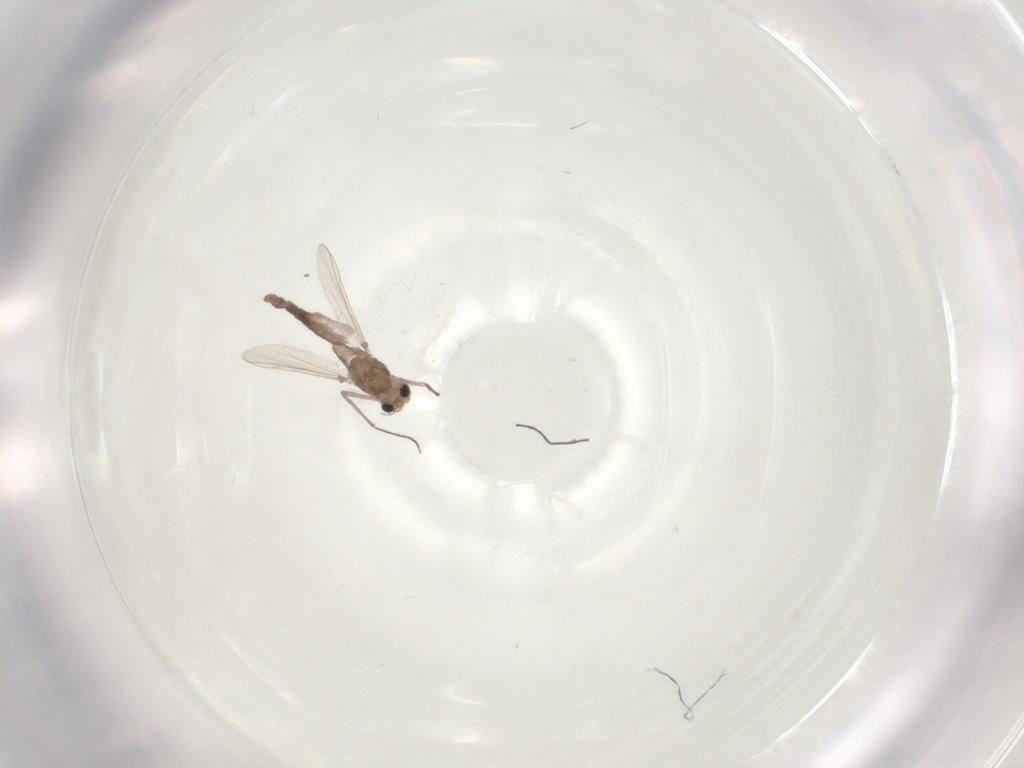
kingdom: Animalia
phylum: Arthropoda
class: Insecta
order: Diptera
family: Chironomidae
